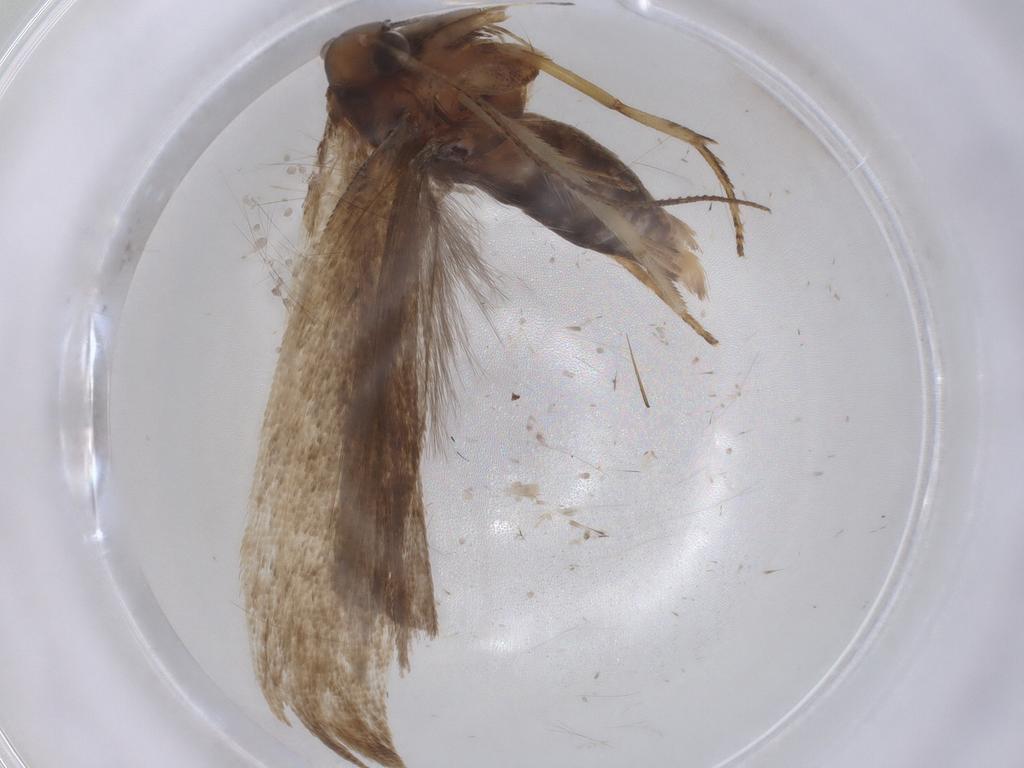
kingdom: Animalia
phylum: Arthropoda
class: Insecta
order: Lepidoptera
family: Gelechiidae
